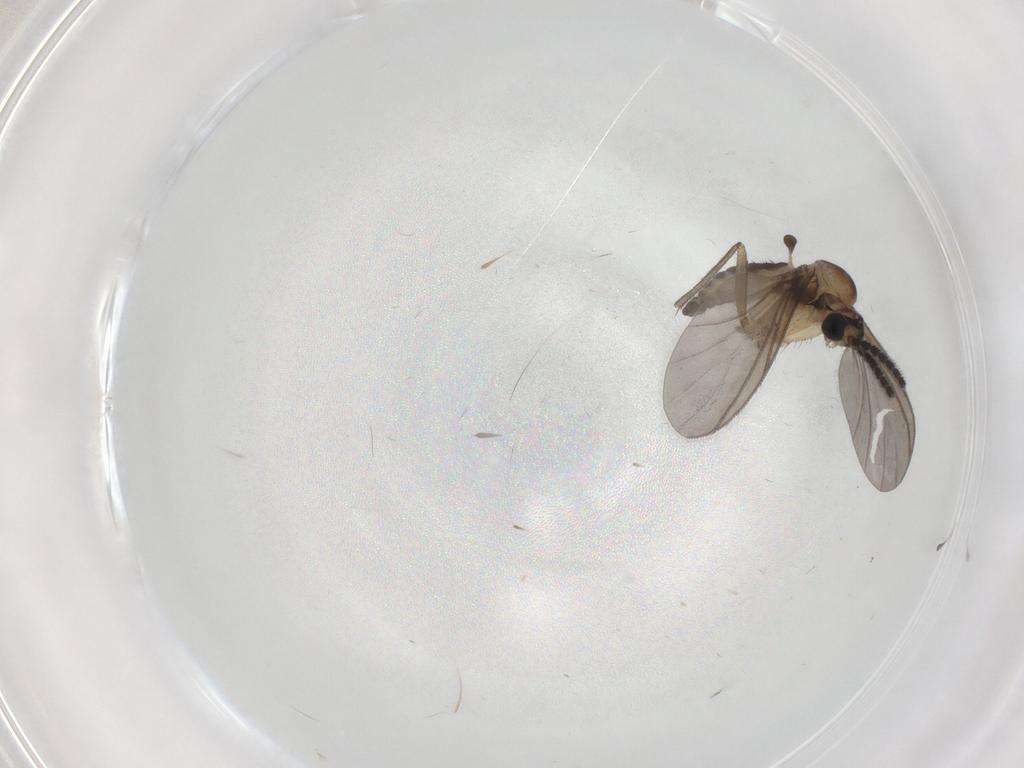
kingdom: Animalia
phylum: Arthropoda
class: Insecta
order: Diptera
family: Sciaridae
